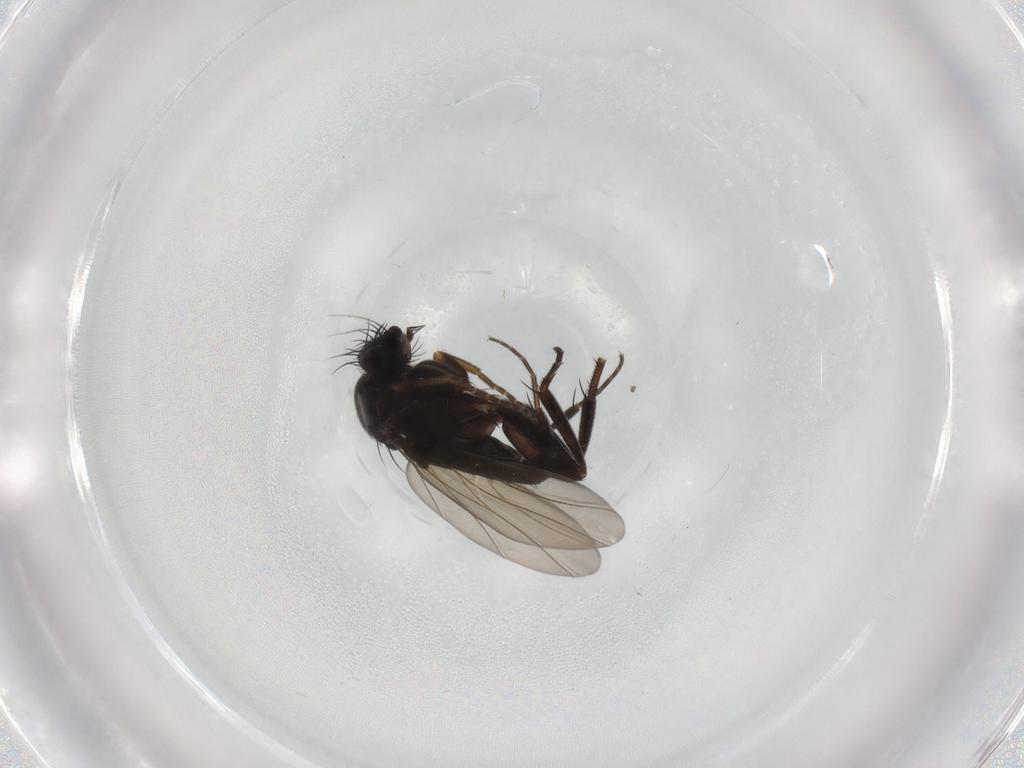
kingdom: Animalia
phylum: Arthropoda
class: Insecta
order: Diptera
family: Phoridae
